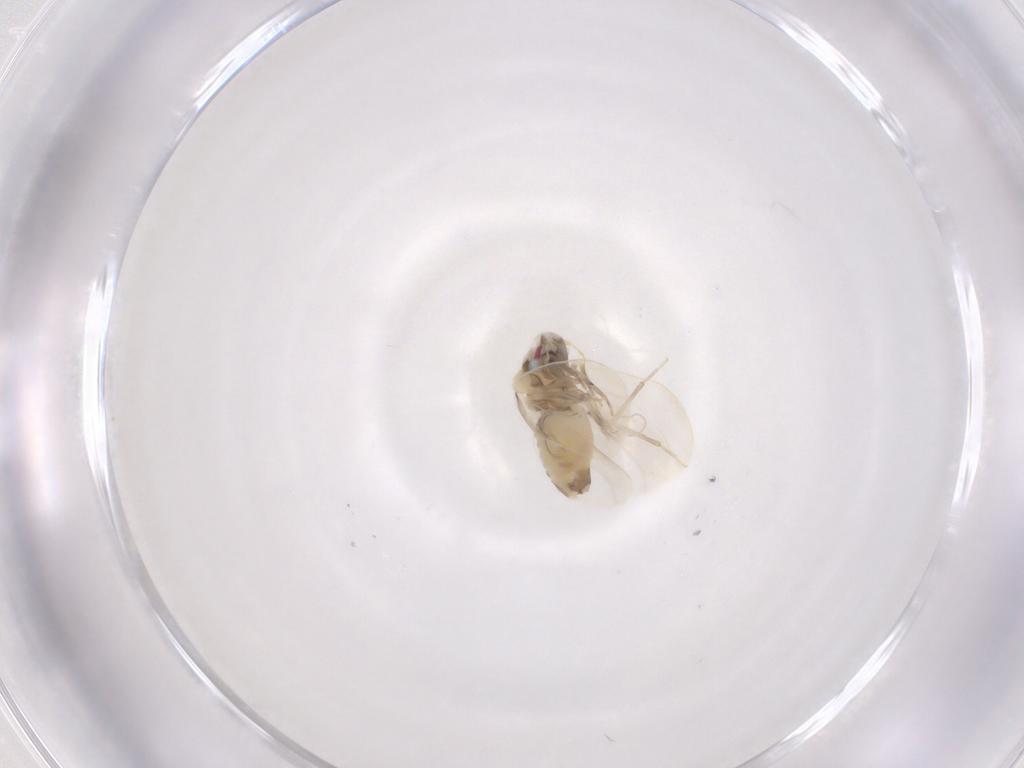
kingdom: Animalia
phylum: Arthropoda
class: Insecta
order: Hemiptera
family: Aleyrodidae
